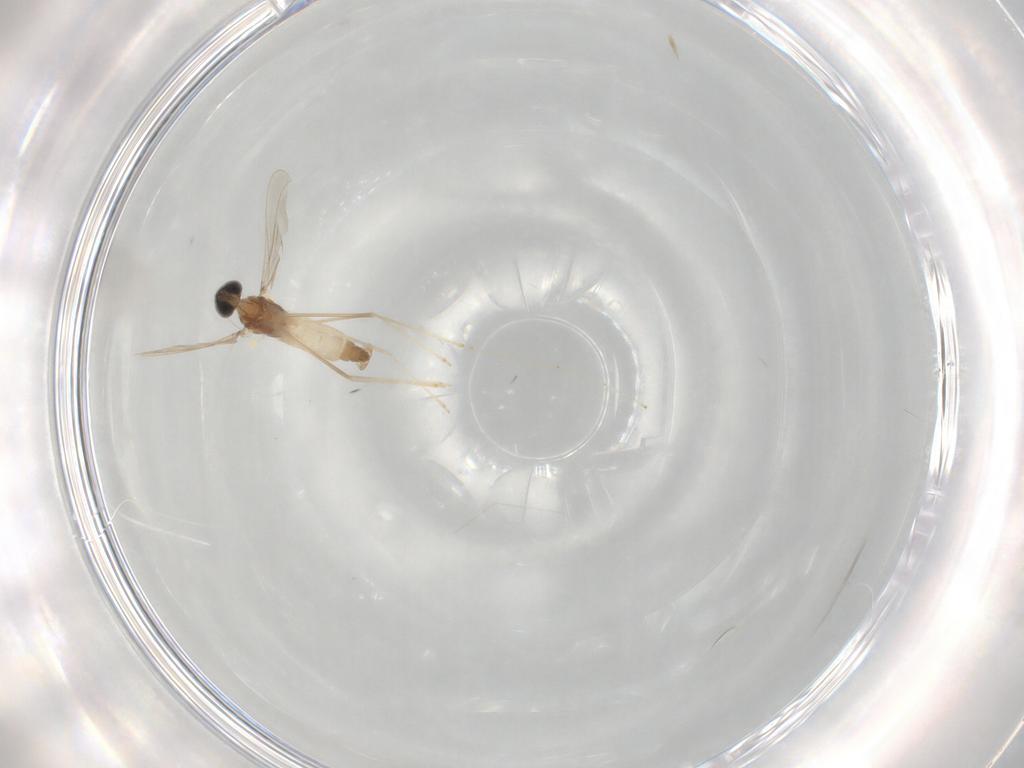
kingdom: Animalia
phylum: Arthropoda
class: Insecta
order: Diptera
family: Cecidomyiidae
